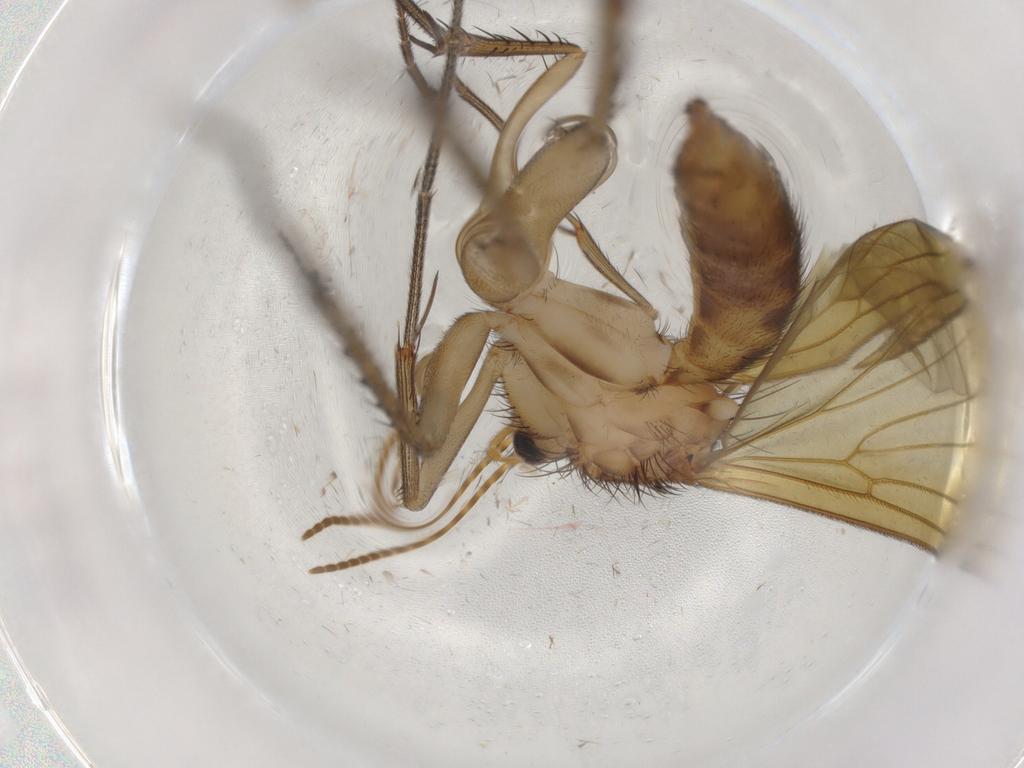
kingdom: Animalia
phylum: Arthropoda
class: Insecta
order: Diptera
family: Mycetophilidae
